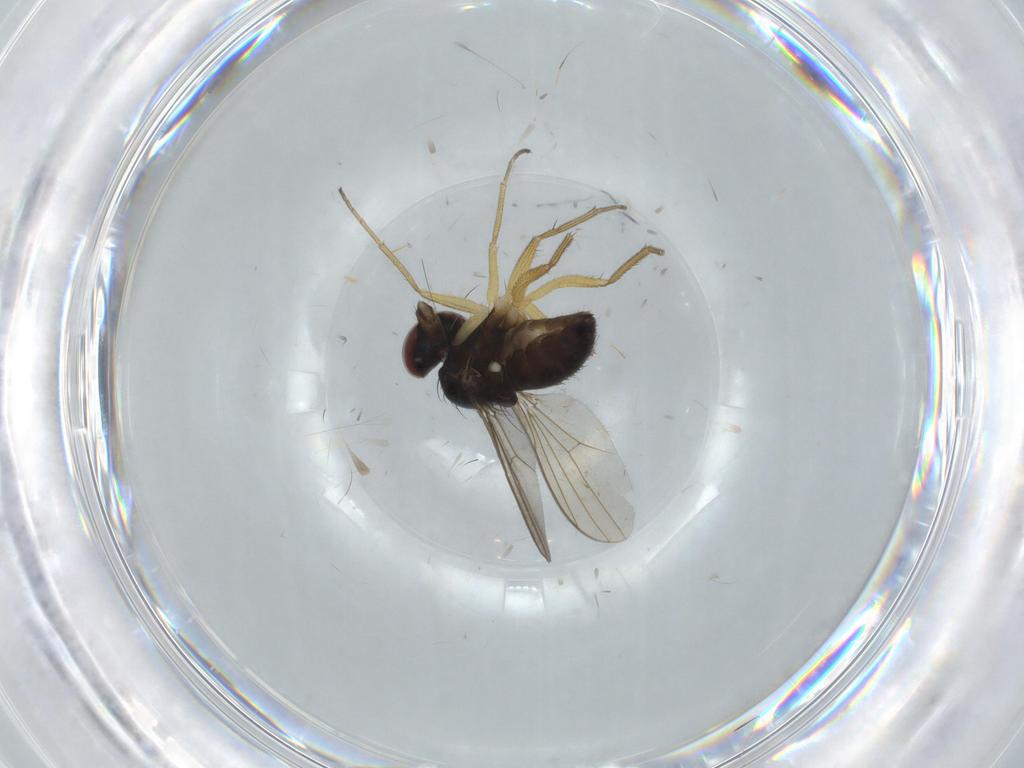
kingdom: Animalia
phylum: Arthropoda
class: Insecta
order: Diptera
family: Dolichopodidae
